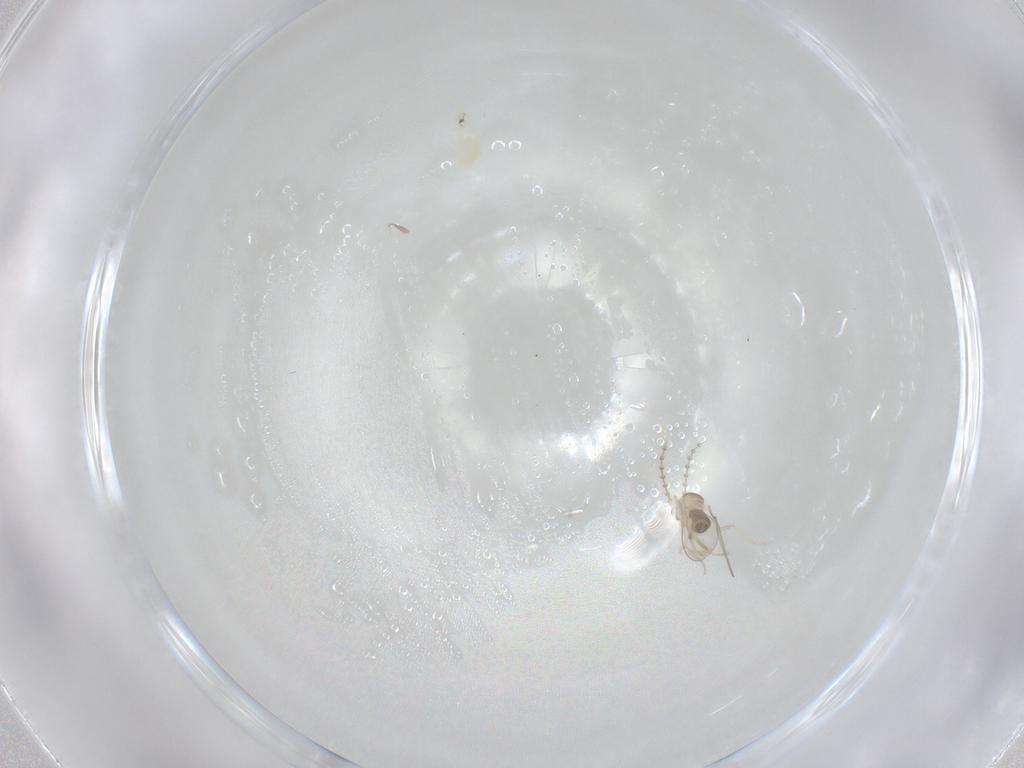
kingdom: Animalia
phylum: Arthropoda
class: Insecta
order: Diptera
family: Cecidomyiidae
